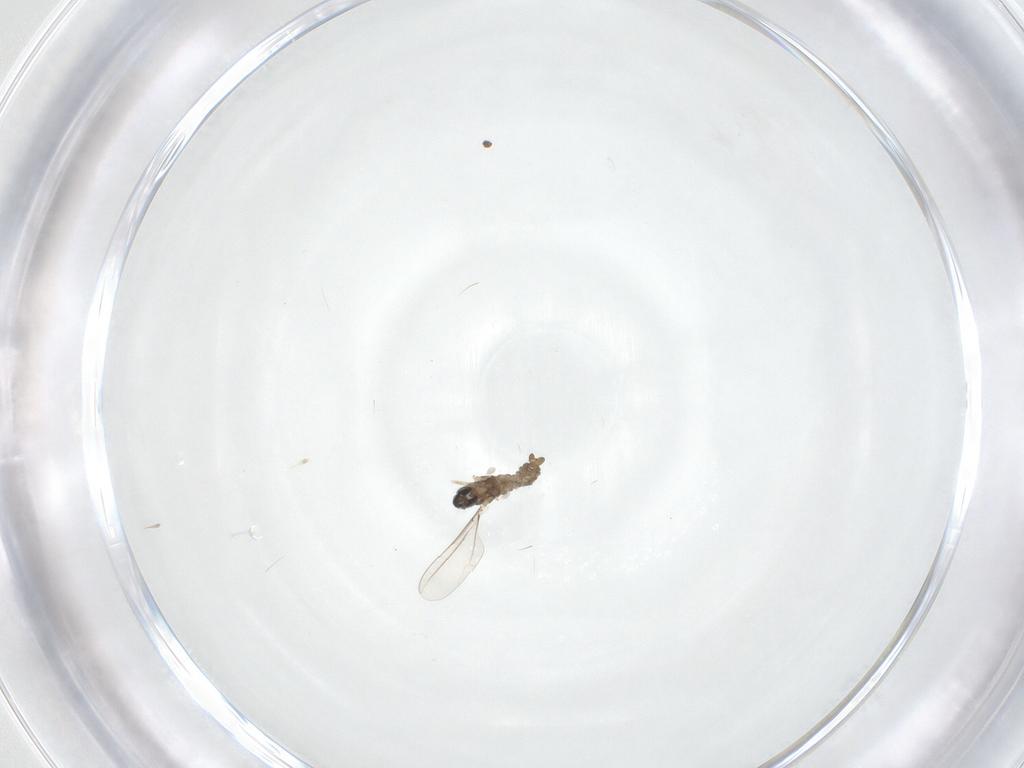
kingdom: Animalia
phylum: Arthropoda
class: Insecta
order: Diptera
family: Cecidomyiidae
